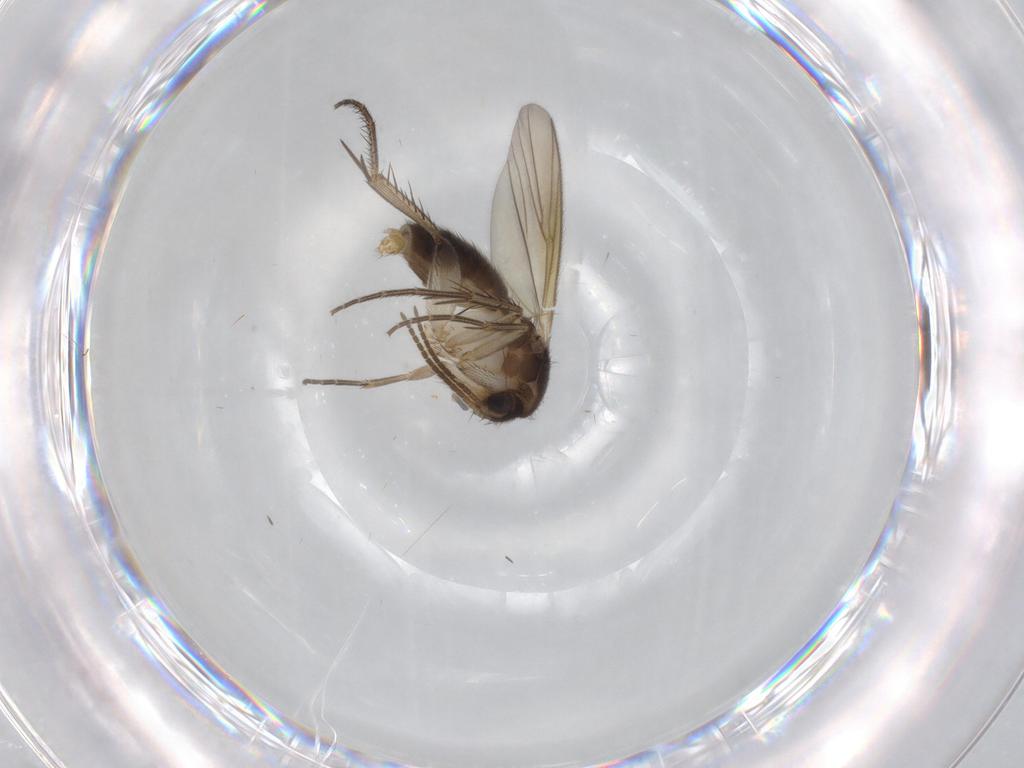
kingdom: Animalia
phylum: Arthropoda
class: Insecta
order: Diptera
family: Mycetophilidae
